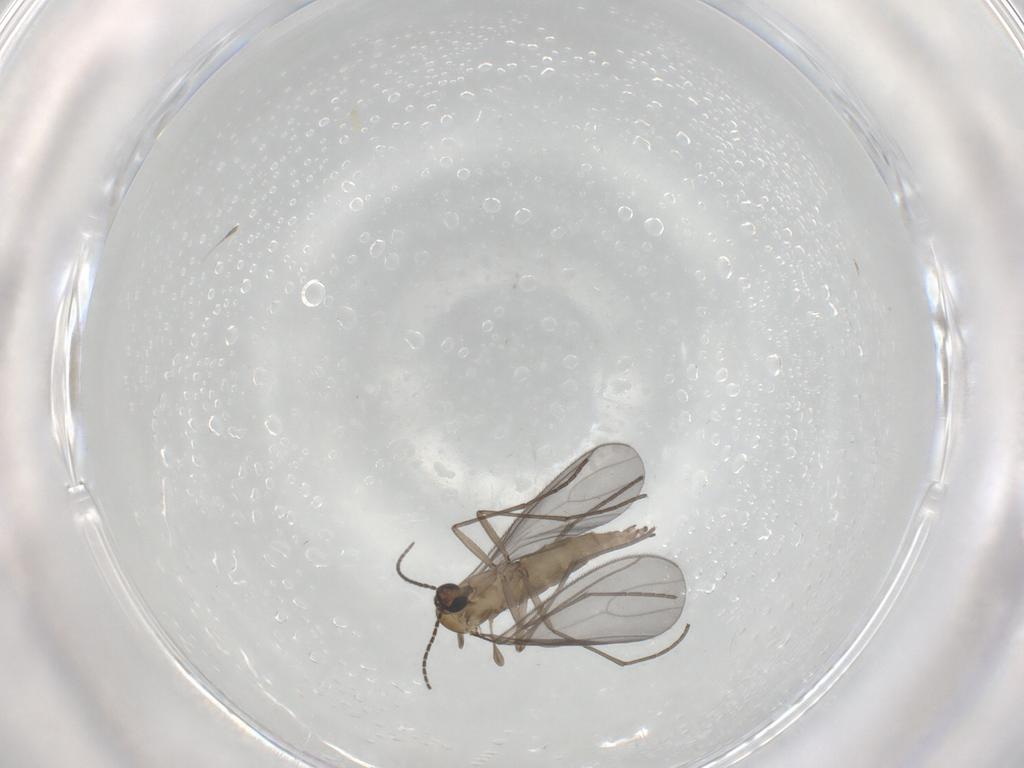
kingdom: Animalia
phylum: Arthropoda
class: Insecta
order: Diptera
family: Sciaridae
